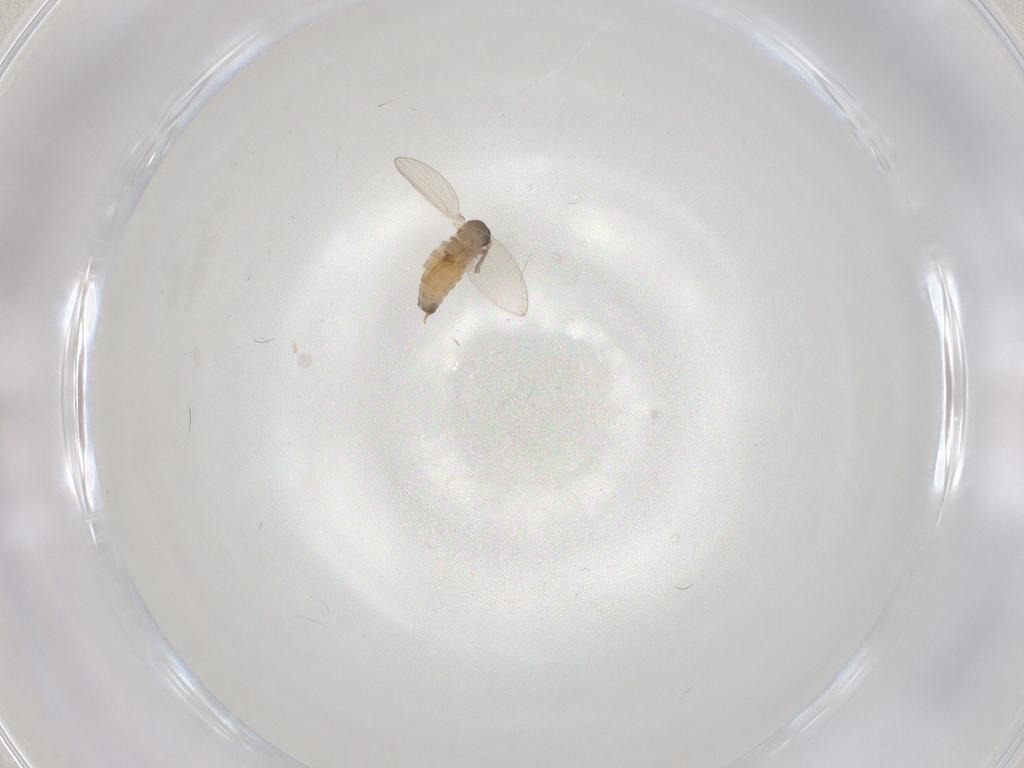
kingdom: Animalia
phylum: Arthropoda
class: Insecta
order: Diptera
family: Psychodidae
